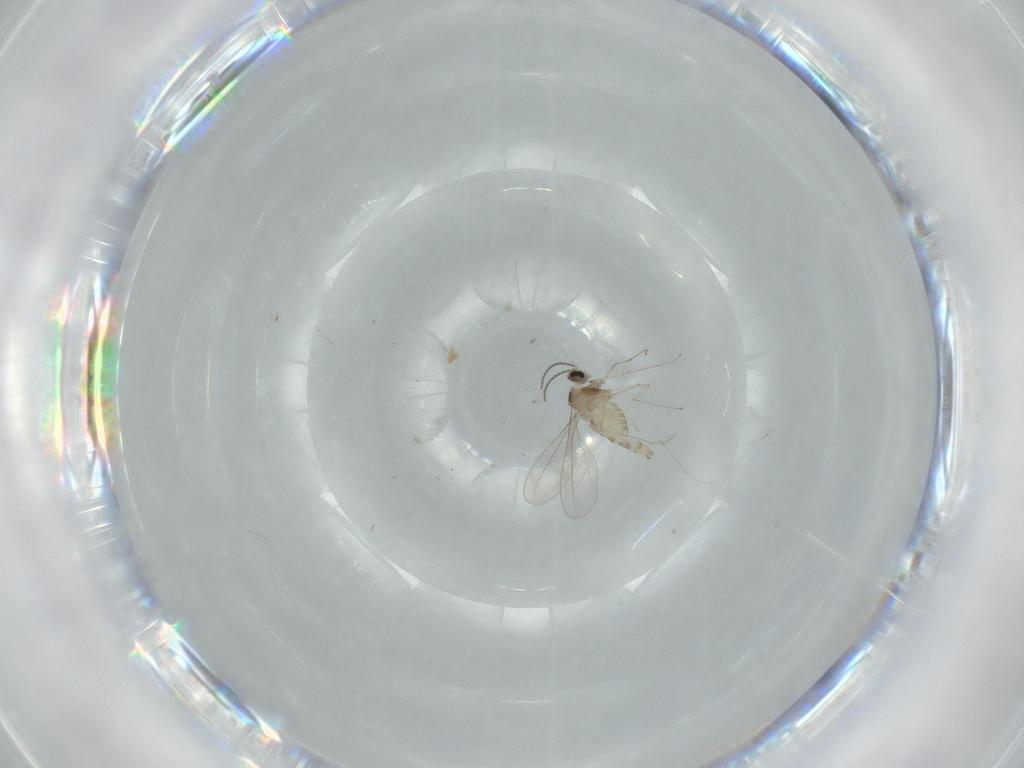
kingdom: Animalia
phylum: Arthropoda
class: Insecta
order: Diptera
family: Cecidomyiidae
